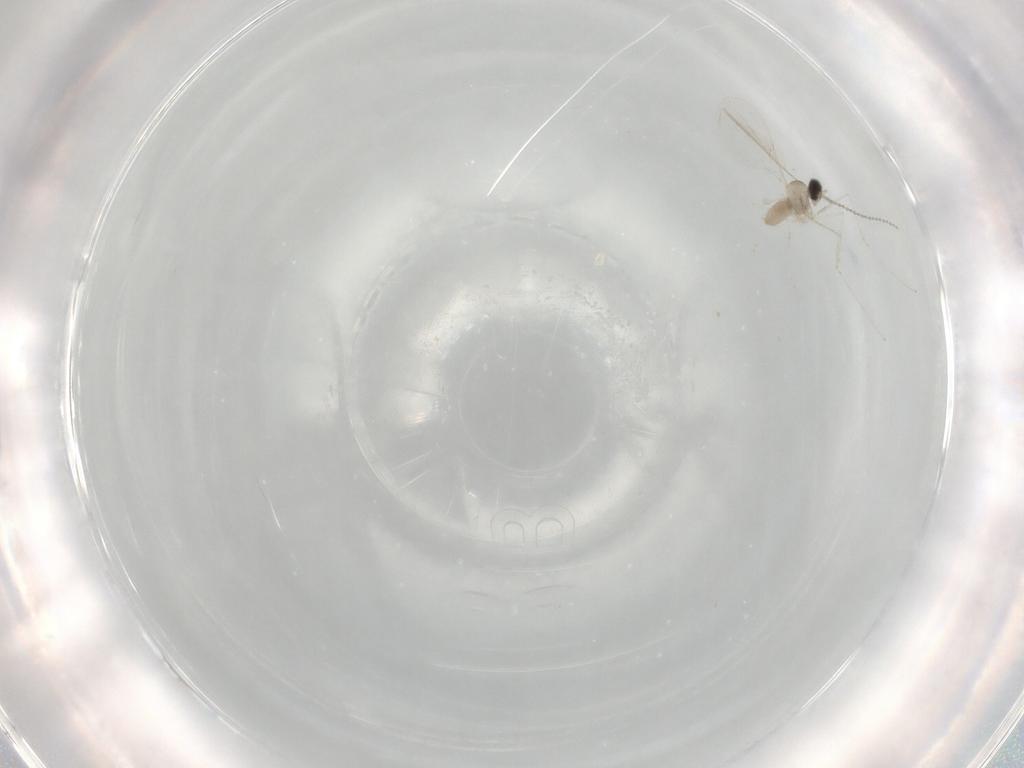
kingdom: Animalia
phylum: Arthropoda
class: Insecta
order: Diptera
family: Cecidomyiidae
